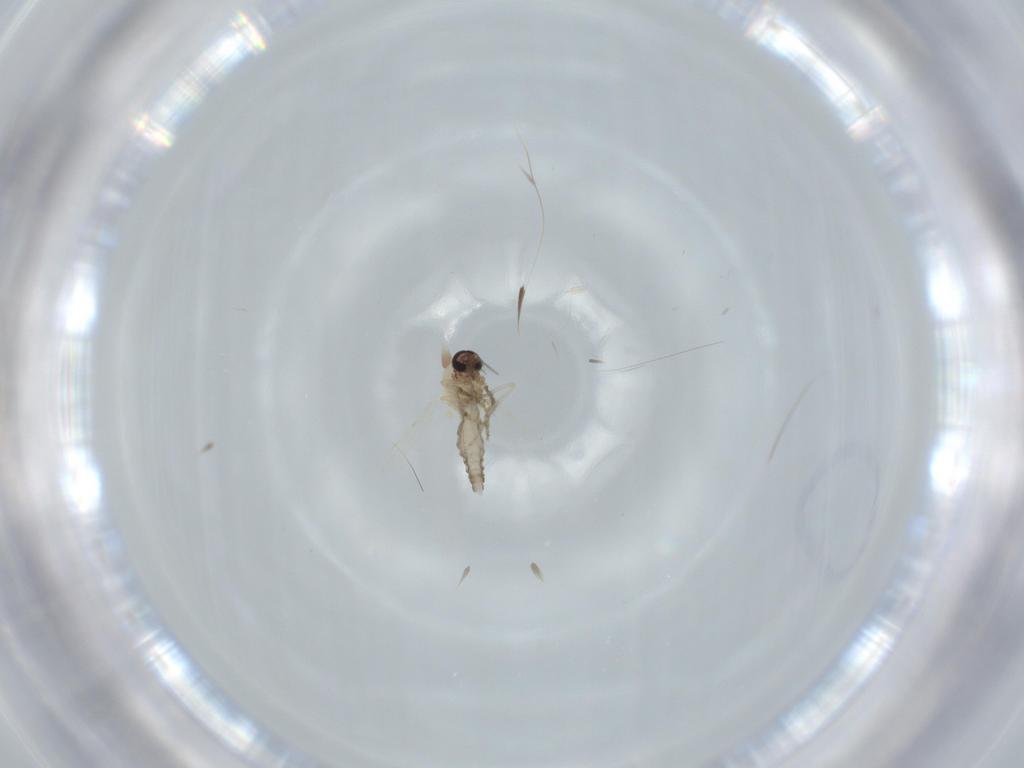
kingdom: Animalia
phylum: Arthropoda
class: Insecta
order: Diptera
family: Ceratopogonidae
